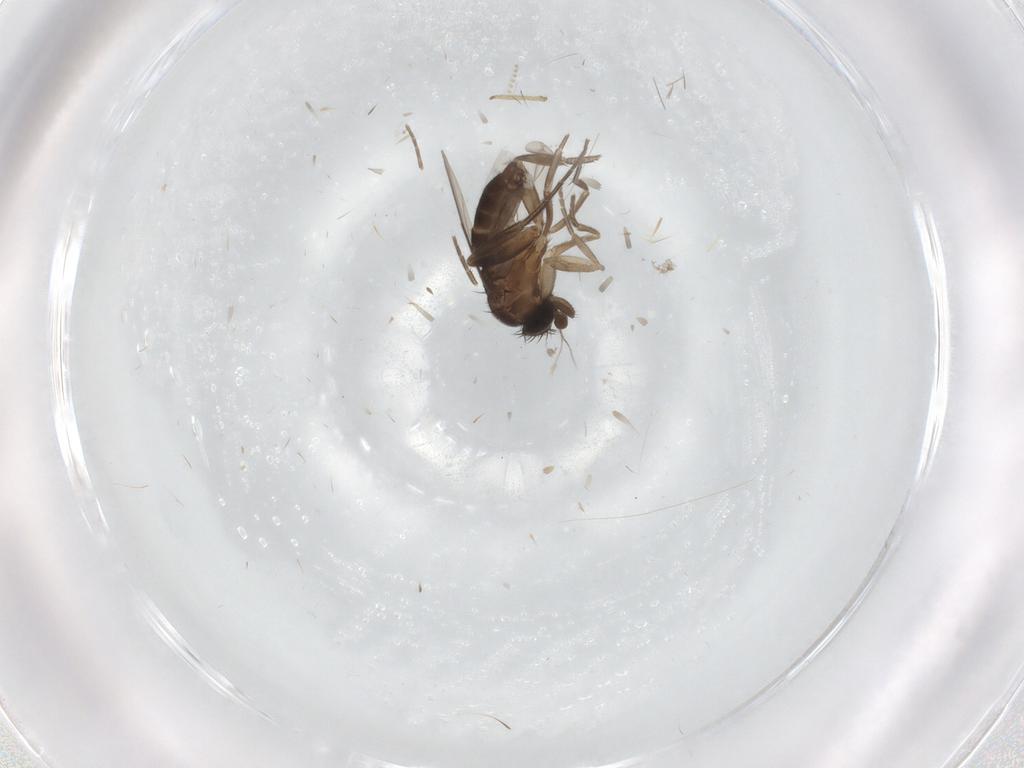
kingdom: Animalia
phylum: Arthropoda
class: Insecta
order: Diptera
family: Phoridae
